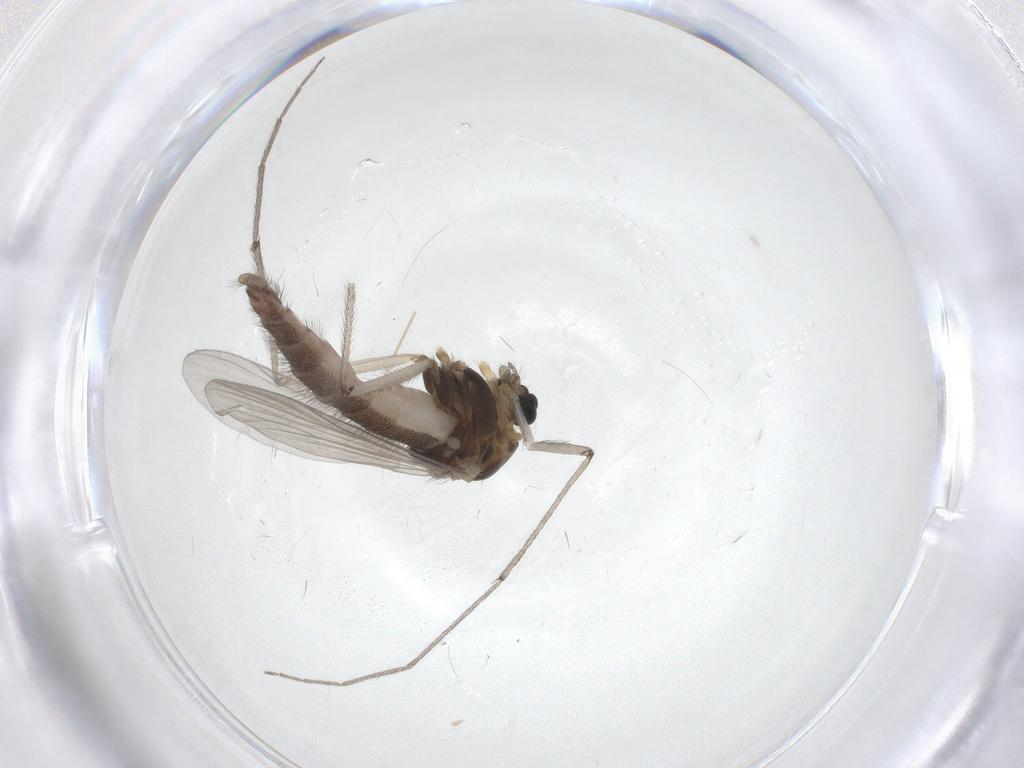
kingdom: Animalia
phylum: Arthropoda
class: Insecta
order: Diptera
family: Chironomidae
